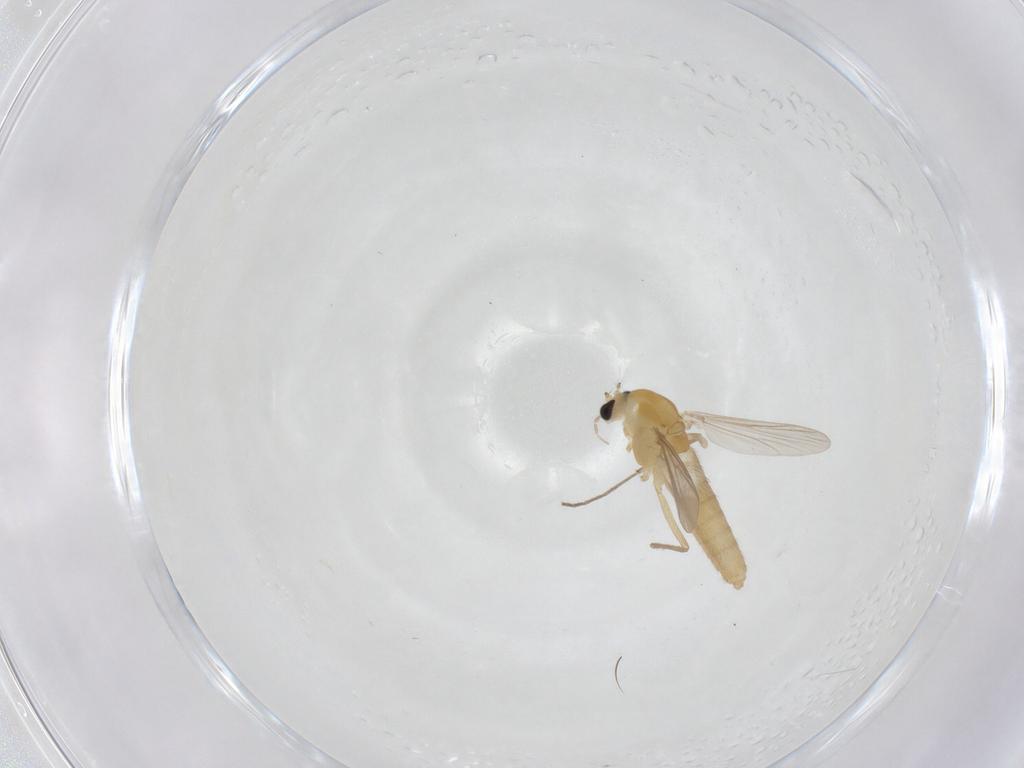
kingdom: Animalia
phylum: Arthropoda
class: Insecta
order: Diptera
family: Chironomidae
